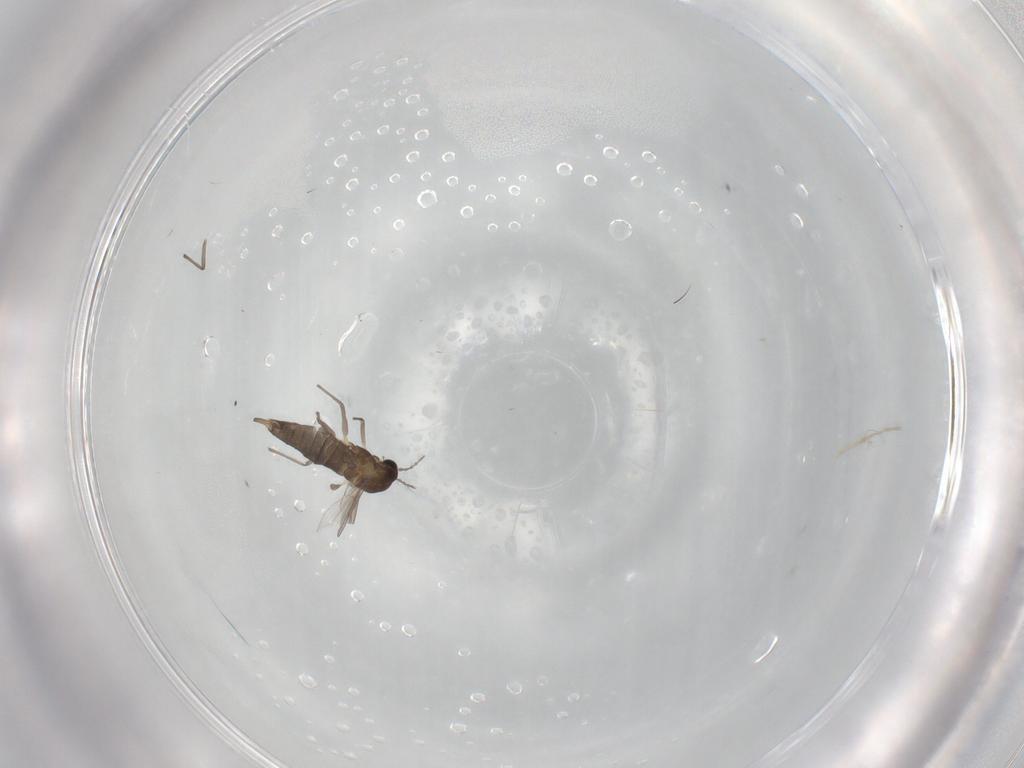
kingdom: Animalia
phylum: Arthropoda
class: Insecta
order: Diptera
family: Chironomidae
